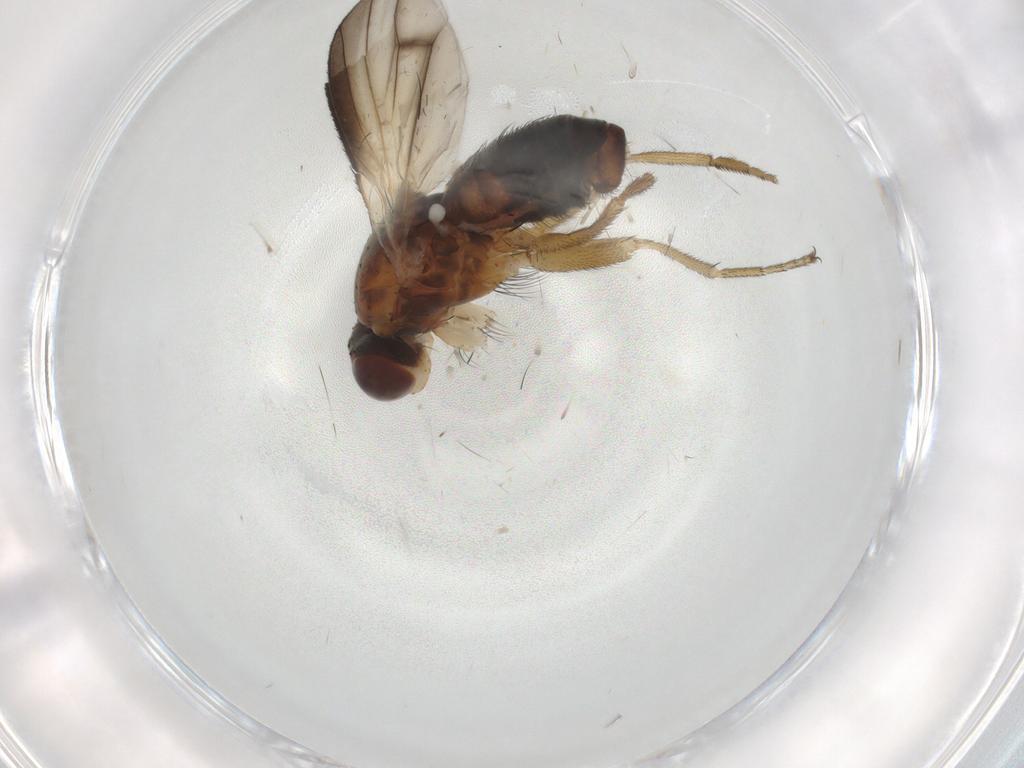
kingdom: Animalia
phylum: Arthropoda
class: Insecta
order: Diptera
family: Heleomyzidae
